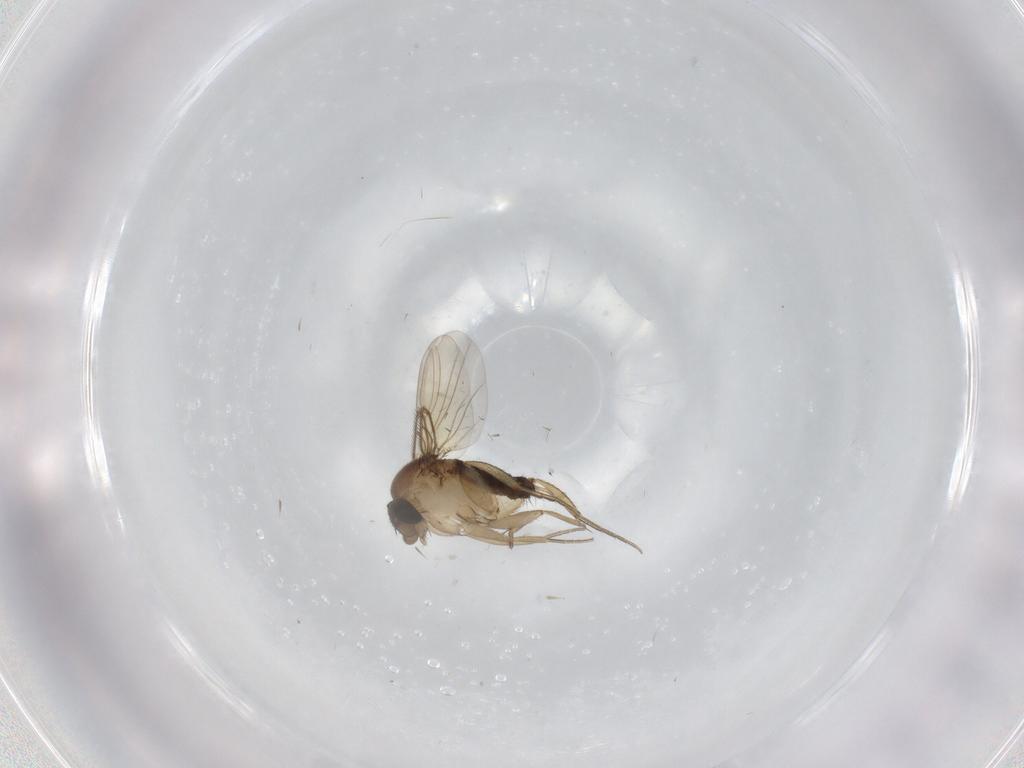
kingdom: Animalia
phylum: Arthropoda
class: Insecta
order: Diptera
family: Phoridae
